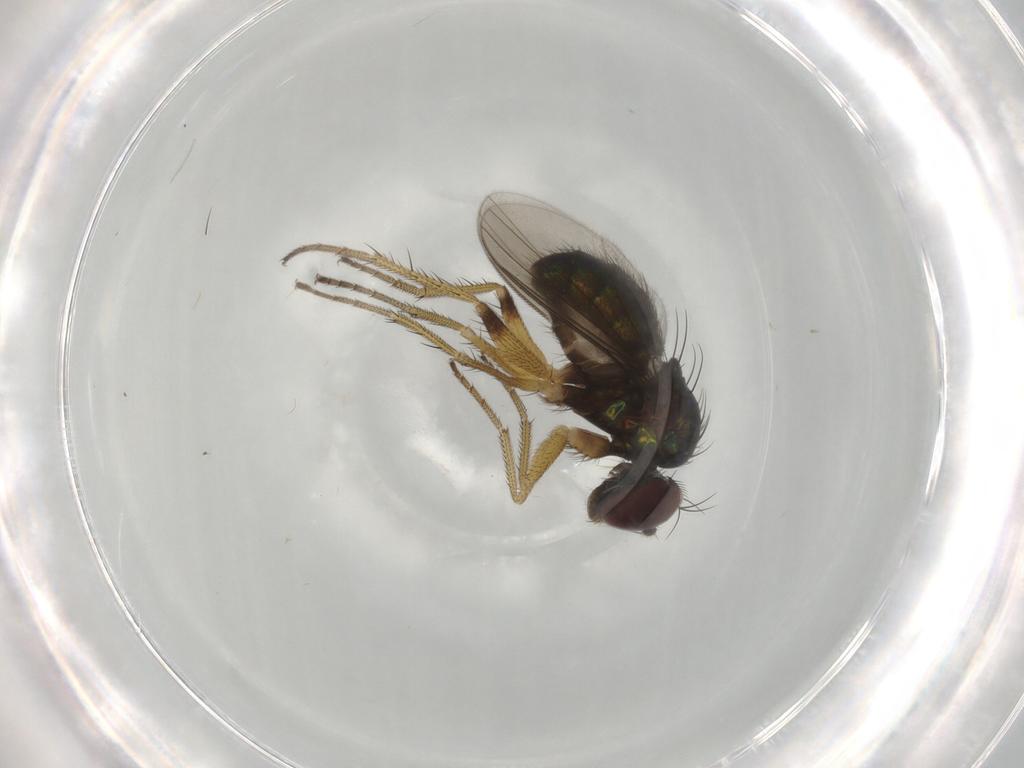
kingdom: Animalia
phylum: Arthropoda
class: Insecta
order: Diptera
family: Dolichopodidae
